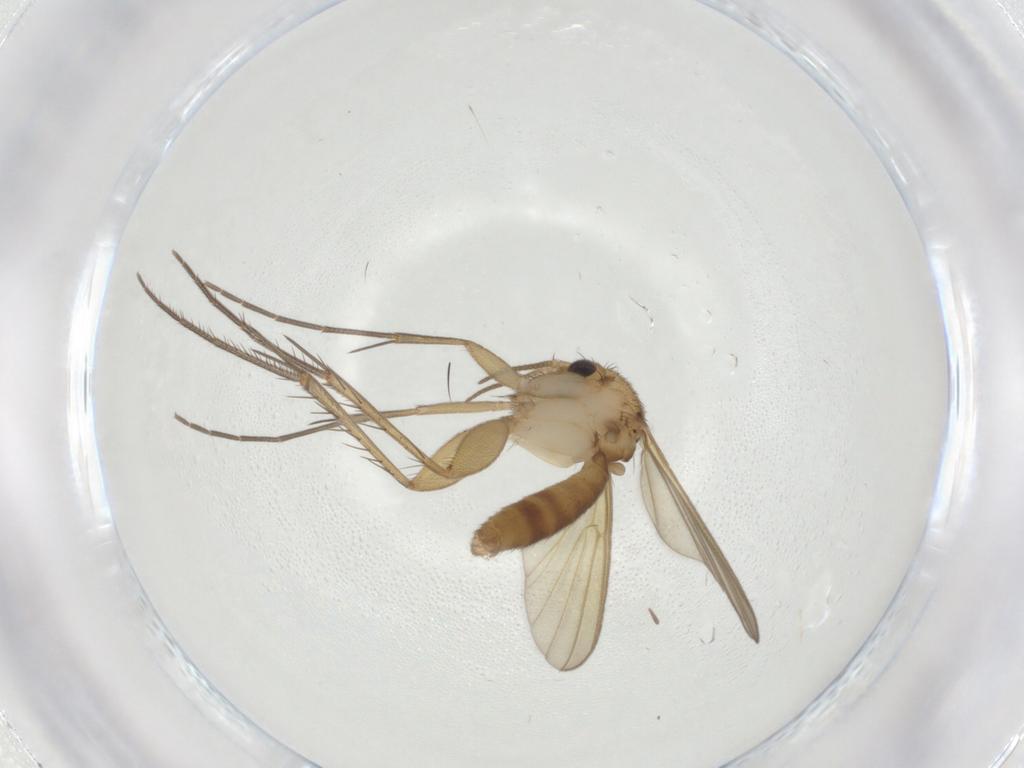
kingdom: Animalia
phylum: Arthropoda
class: Insecta
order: Diptera
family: Mycetophilidae
